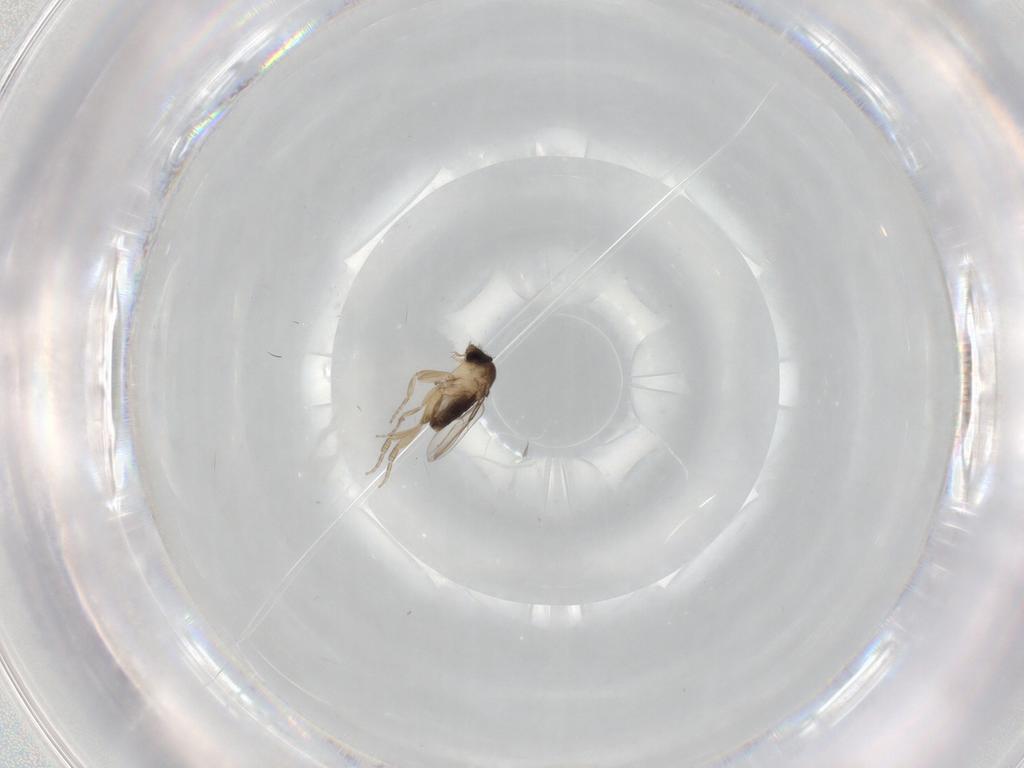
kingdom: Animalia
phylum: Arthropoda
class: Insecta
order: Diptera
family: Phoridae
